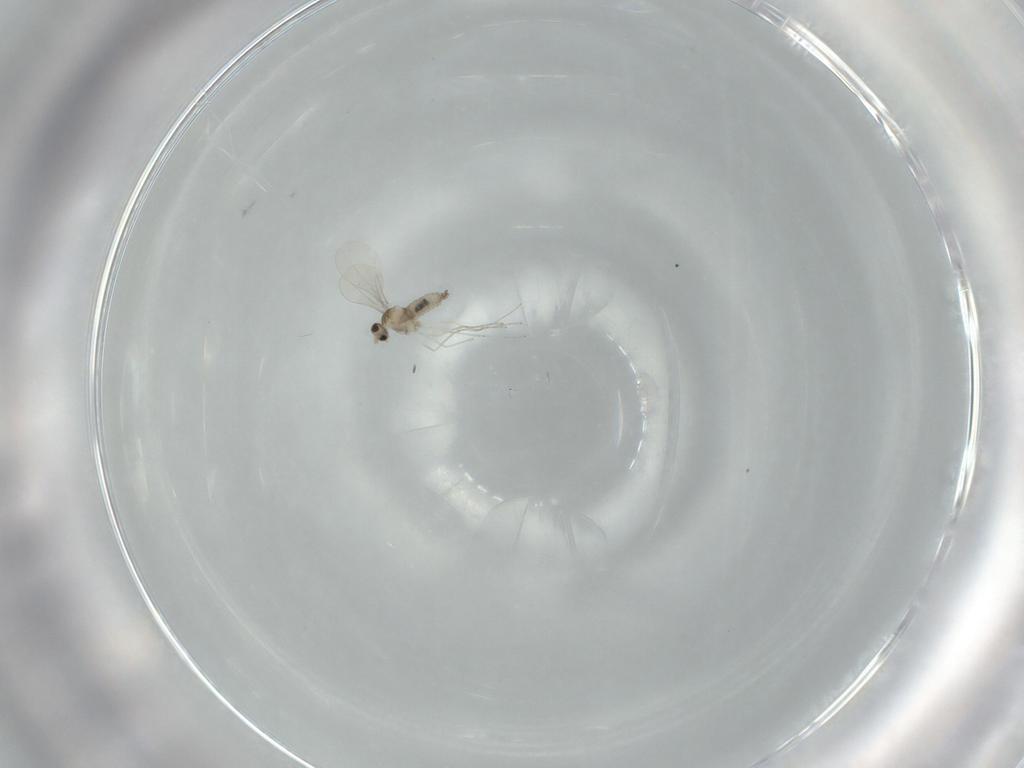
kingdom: Animalia
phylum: Arthropoda
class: Insecta
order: Diptera
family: Cecidomyiidae
